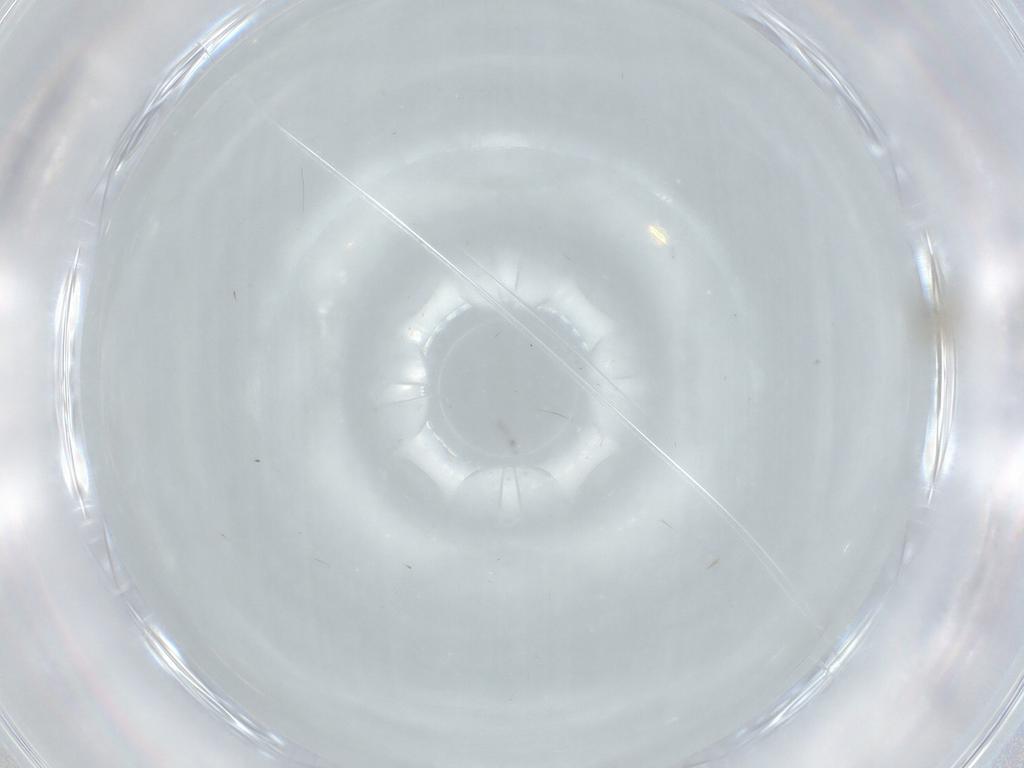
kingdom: Animalia
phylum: Arthropoda
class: Insecta
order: Diptera
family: Cecidomyiidae
